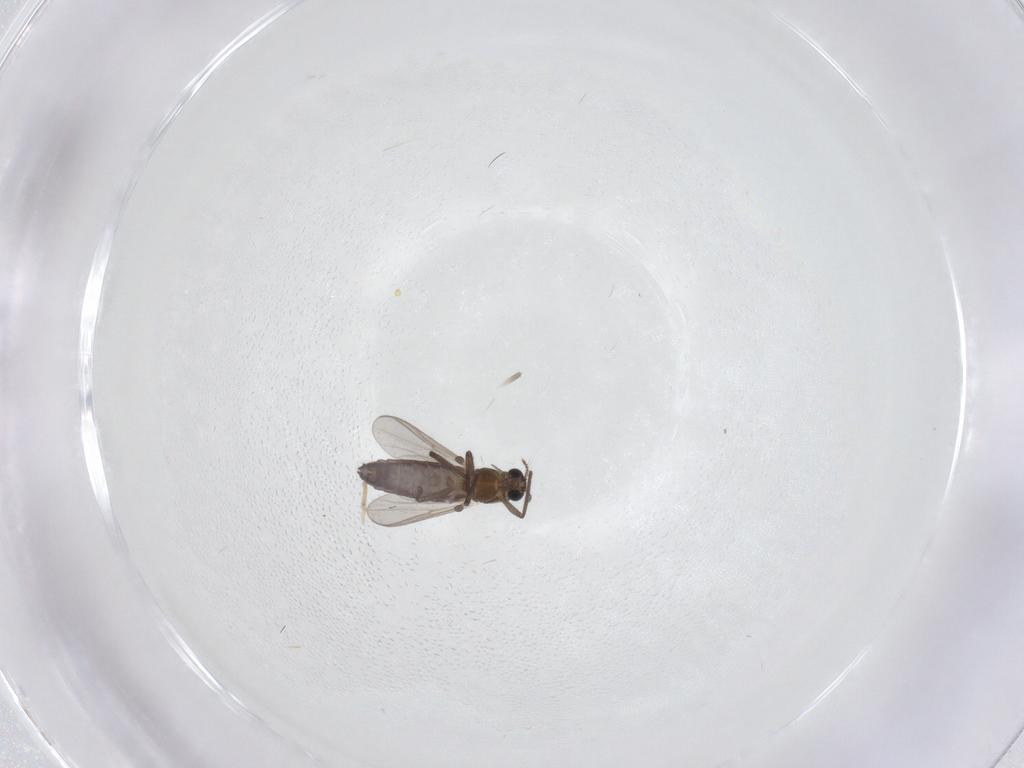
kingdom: Animalia
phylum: Arthropoda
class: Insecta
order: Diptera
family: Chironomidae
